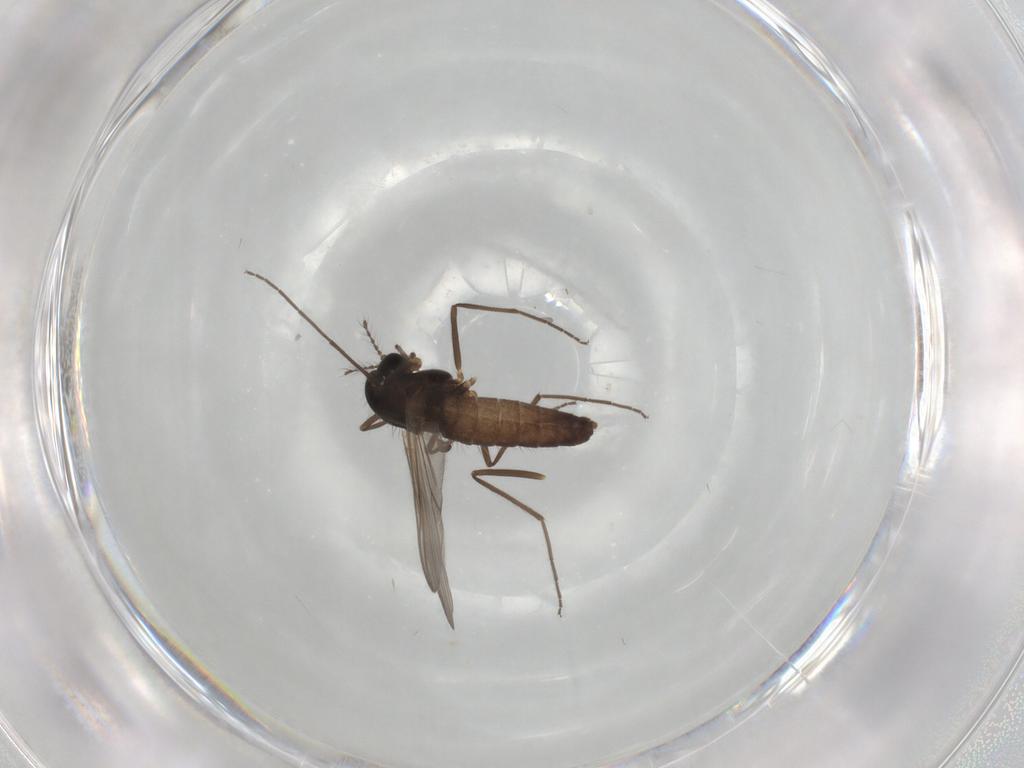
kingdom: Animalia
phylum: Arthropoda
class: Insecta
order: Diptera
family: Chironomidae
